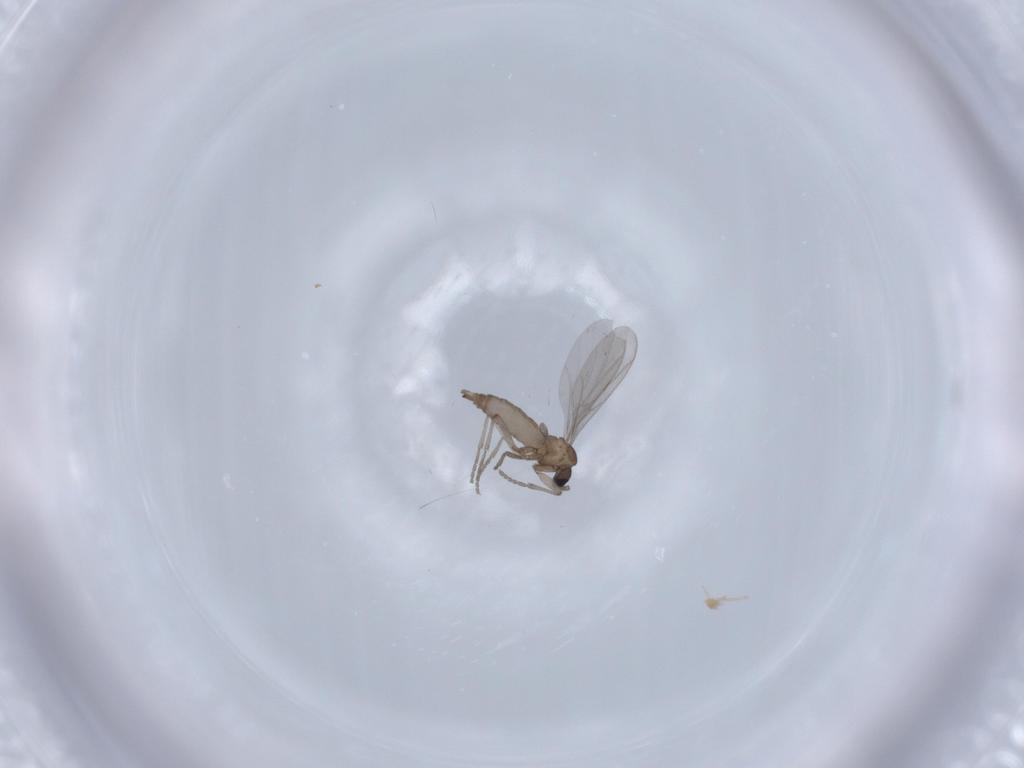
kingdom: Animalia
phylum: Arthropoda
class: Insecta
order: Diptera
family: Sciaridae
